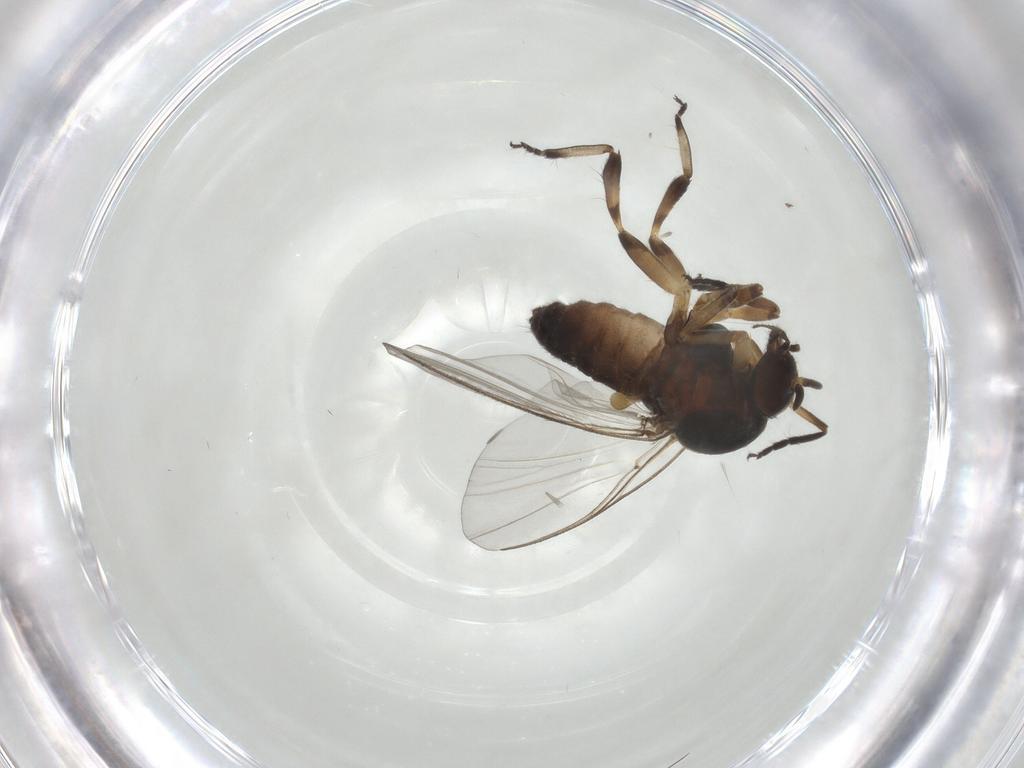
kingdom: Animalia
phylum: Arthropoda
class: Insecta
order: Diptera
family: Simuliidae
